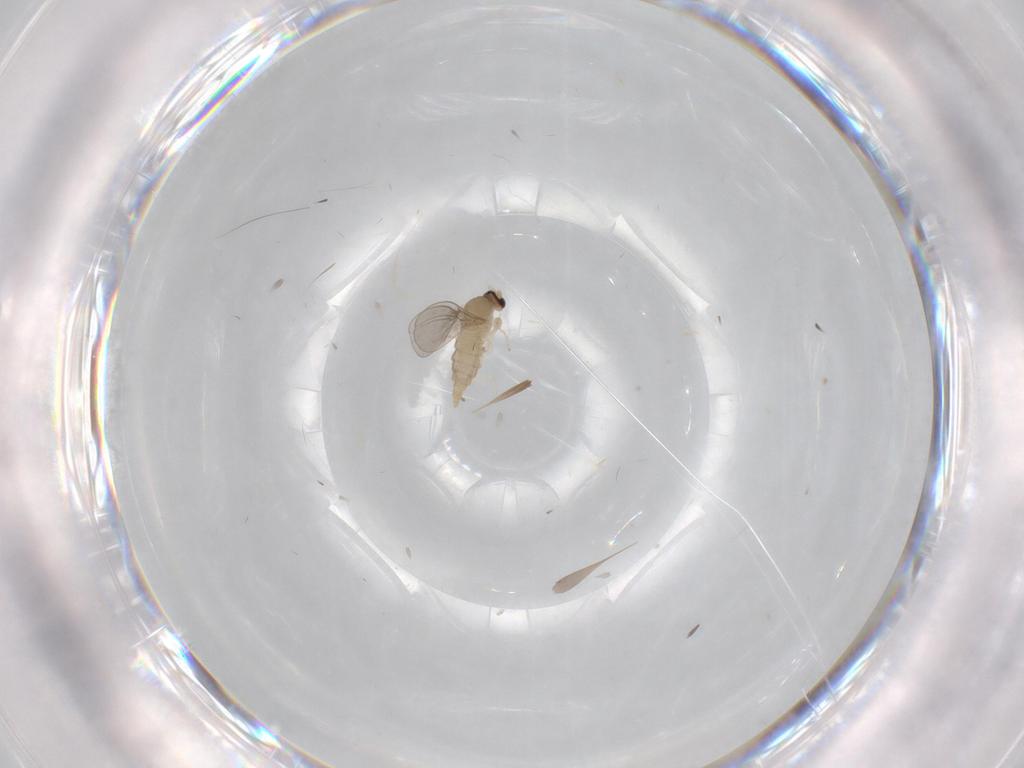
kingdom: Animalia
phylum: Arthropoda
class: Insecta
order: Diptera
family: Cecidomyiidae
